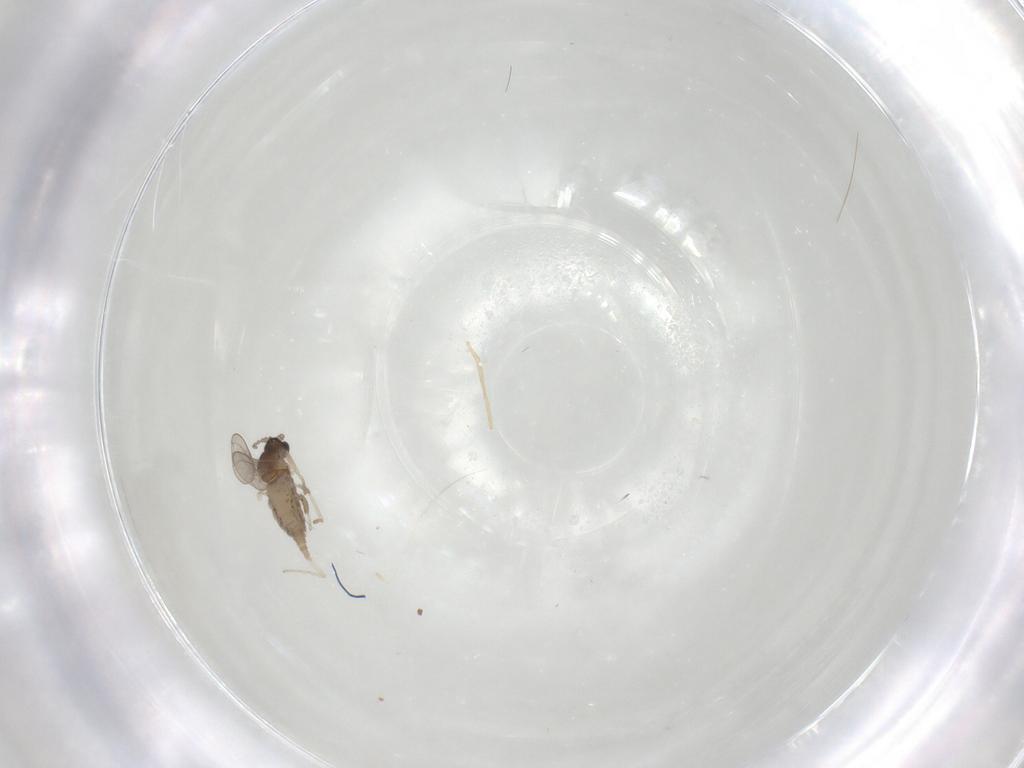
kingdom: Animalia
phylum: Arthropoda
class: Insecta
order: Diptera
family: Cecidomyiidae
